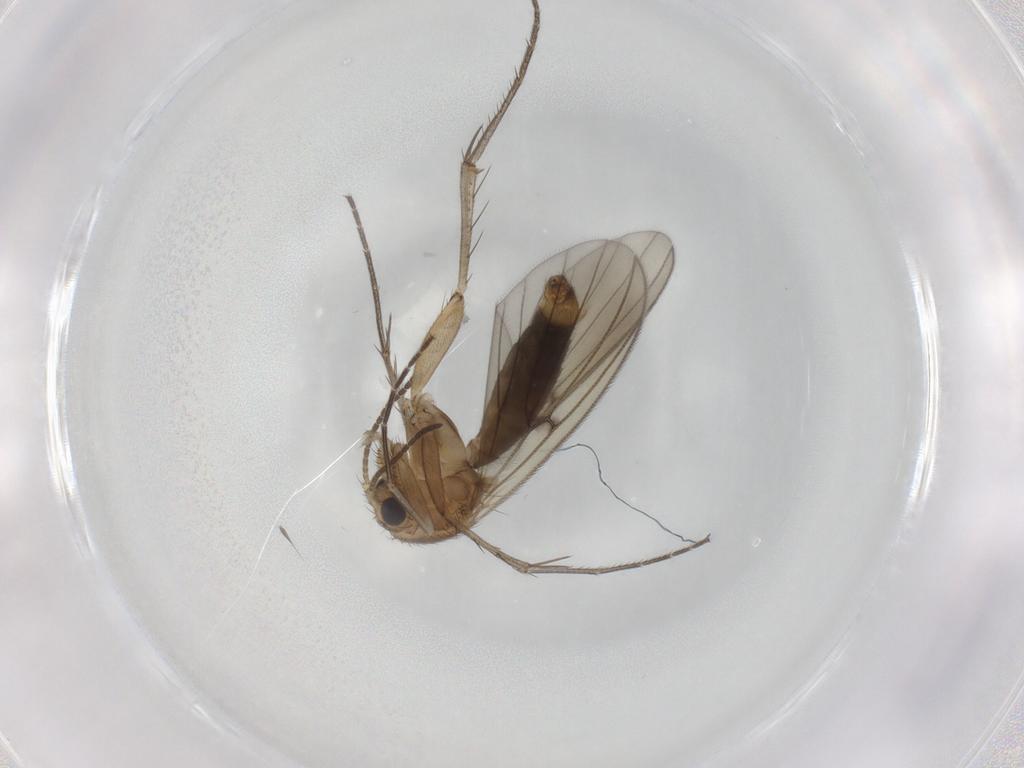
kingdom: Animalia
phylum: Arthropoda
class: Insecta
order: Diptera
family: Mycetophilidae
